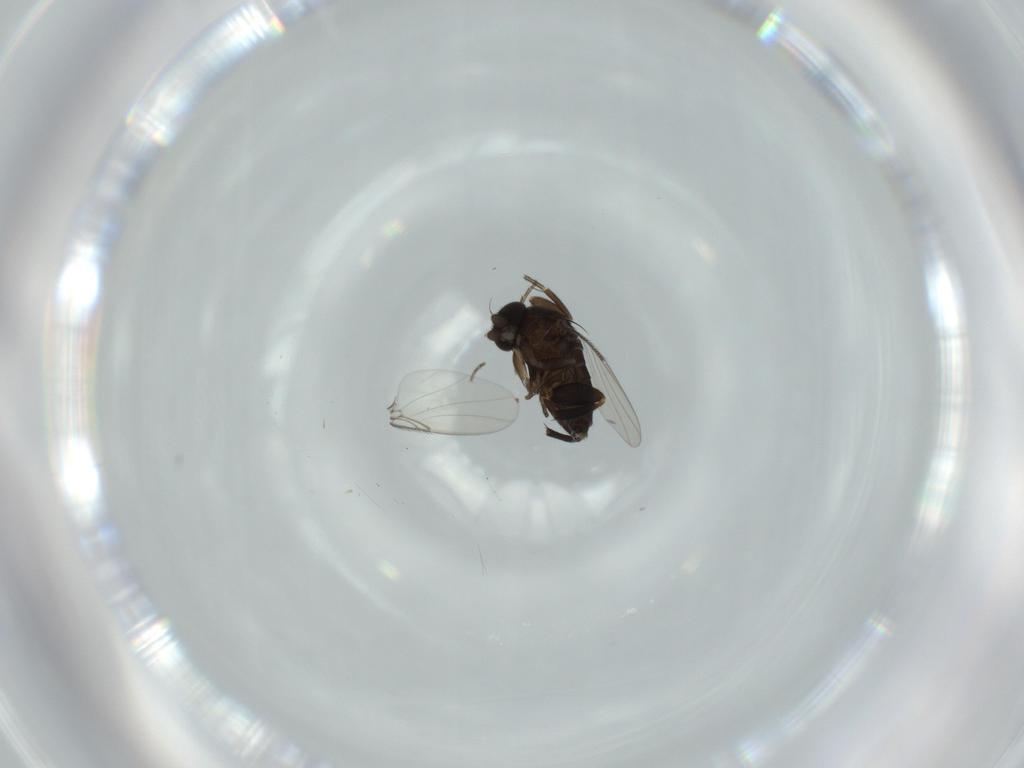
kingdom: Animalia
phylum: Arthropoda
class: Insecta
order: Diptera
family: Phoridae
